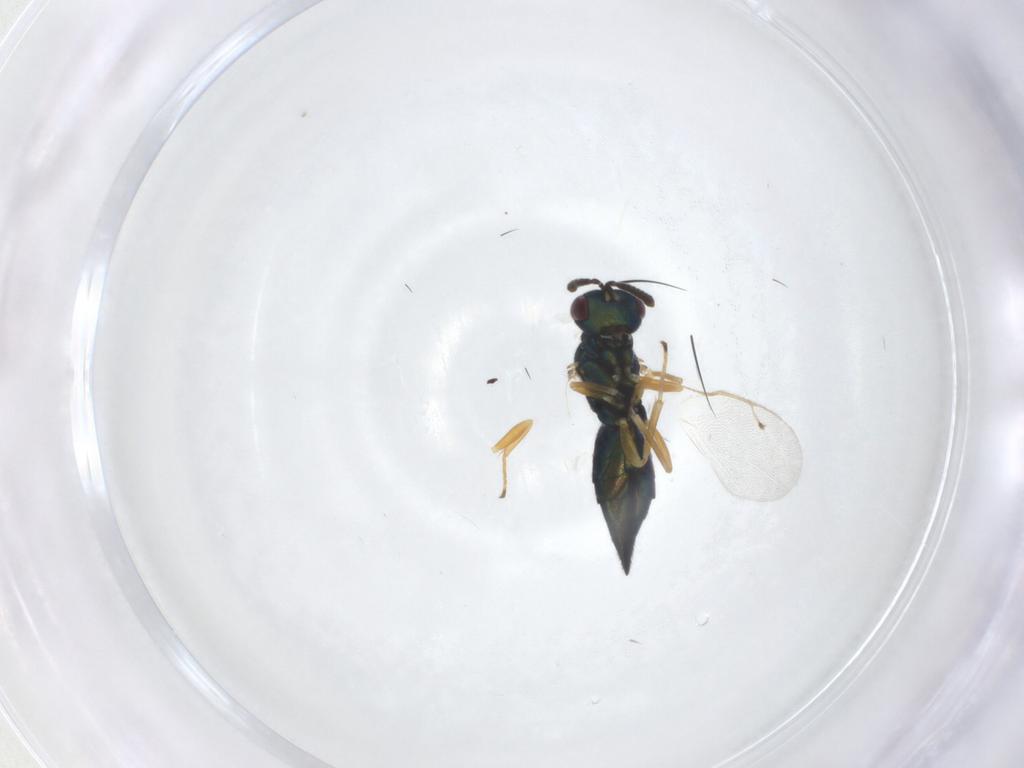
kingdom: Animalia
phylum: Arthropoda
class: Insecta
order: Hymenoptera
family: Pteromalidae
